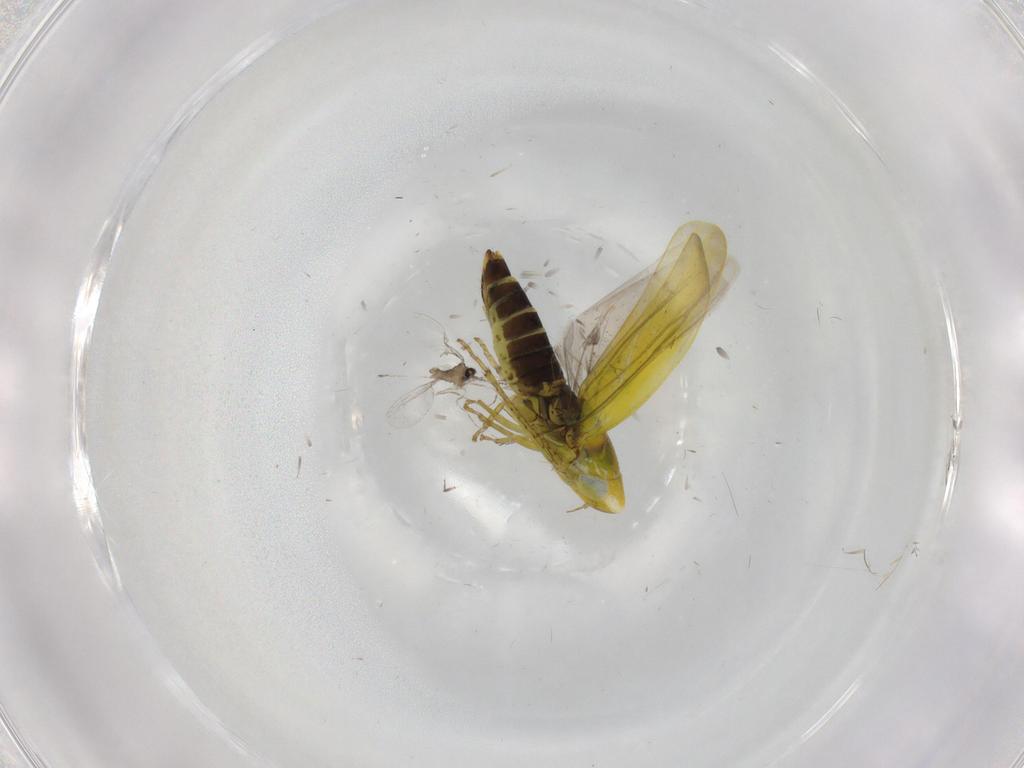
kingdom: Animalia
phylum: Arthropoda
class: Insecta
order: Hemiptera
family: Cicadellidae
